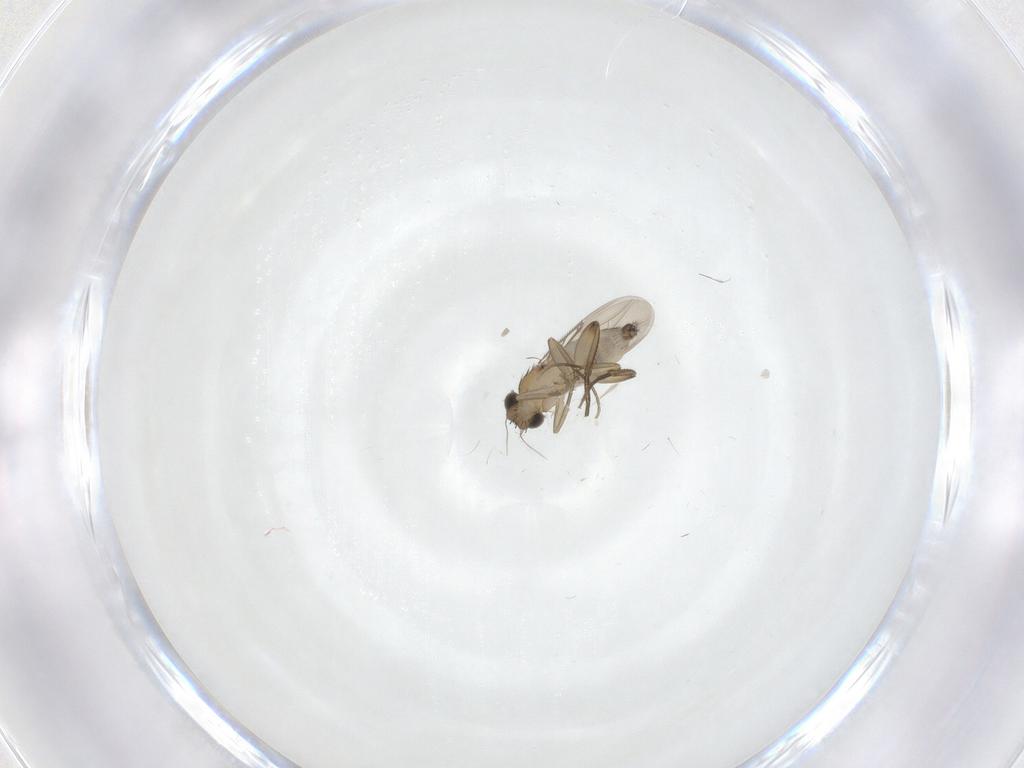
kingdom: Animalia
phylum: Arthropoda
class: Insecta
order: Diptera
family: Phoridae
